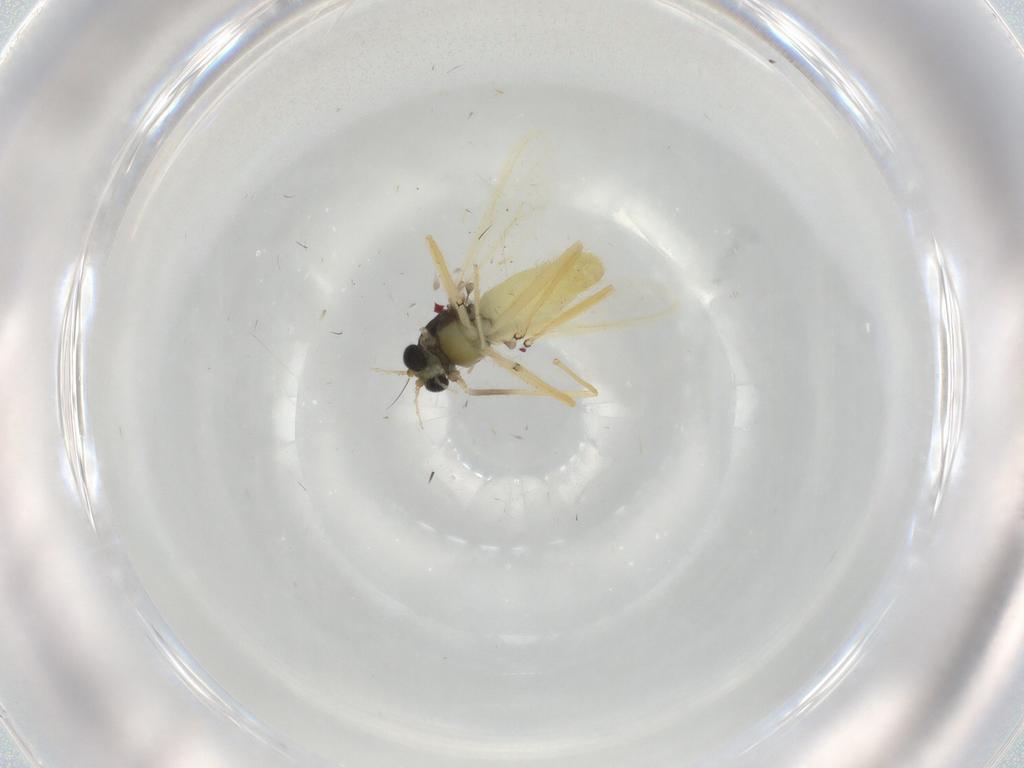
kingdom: Animalia
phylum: Arthropoda
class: Insecta
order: Diptera
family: Chironomidae
